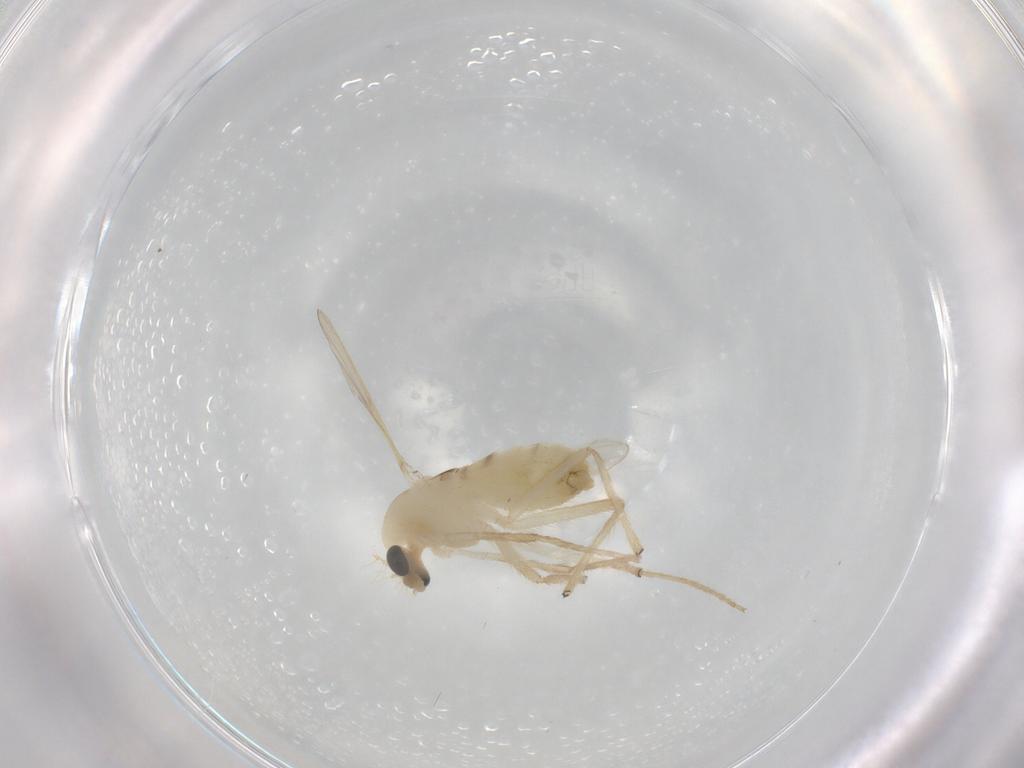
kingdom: Animalia
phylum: Arthropoda
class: Insecta
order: Diptera
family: Chironomidae
